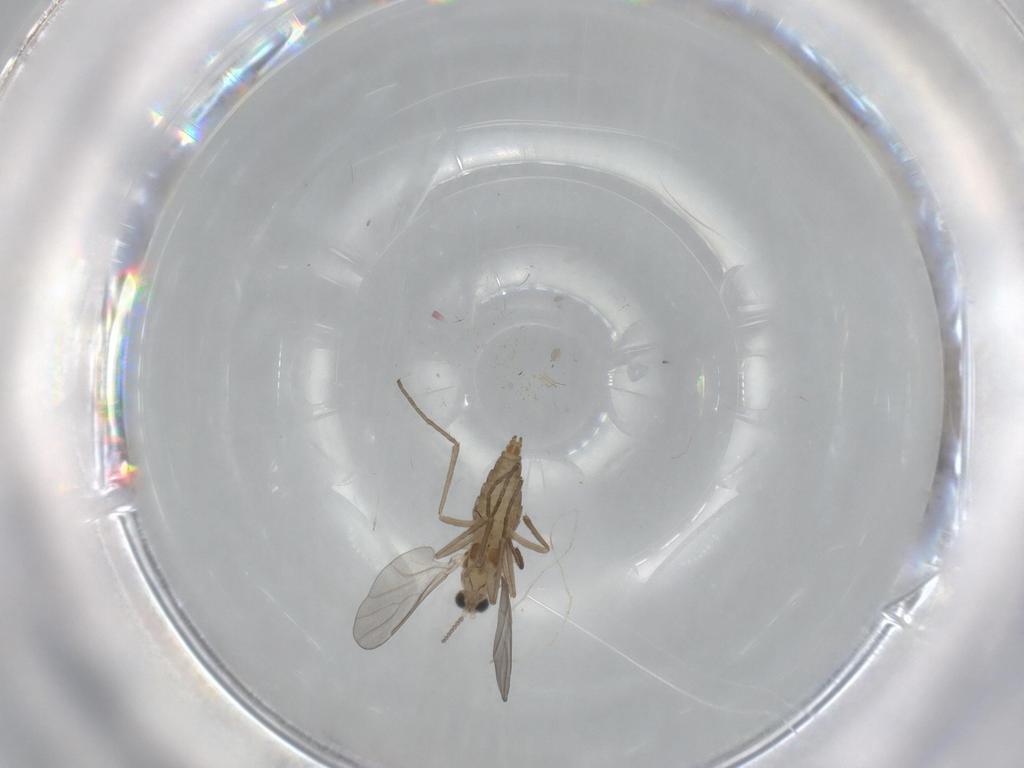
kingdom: Animalia
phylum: Arthropoda
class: Insecta
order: Diptera
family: Cecidomyiidae
